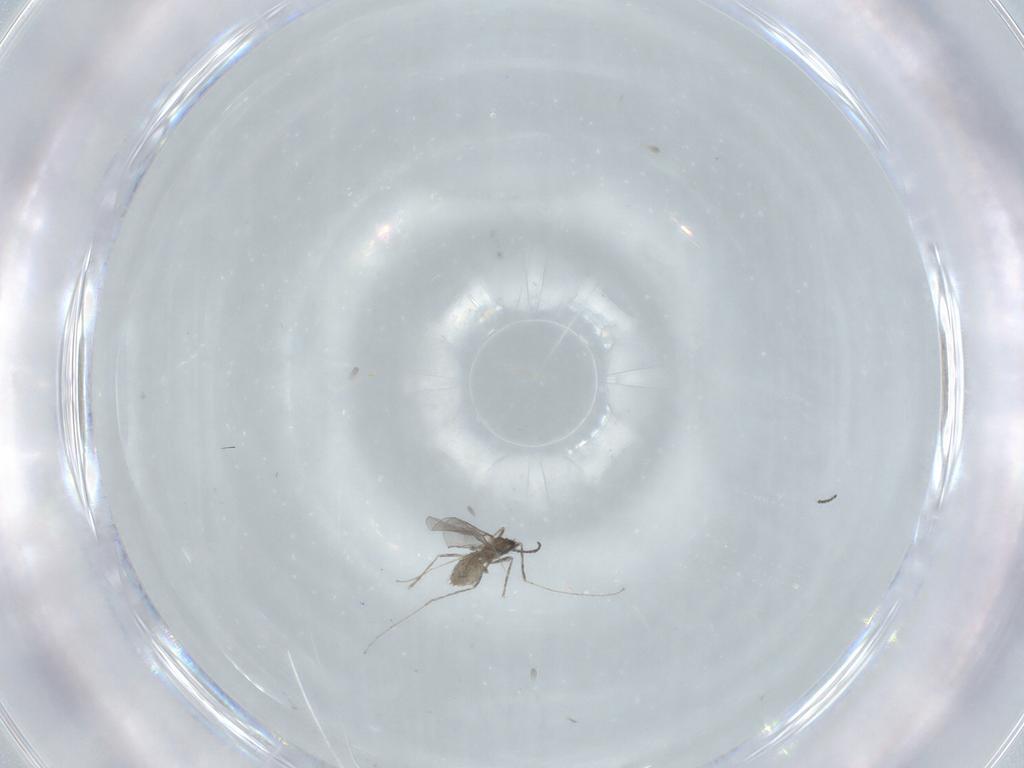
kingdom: Animalia
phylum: Arthropoda
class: Insecta
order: Diptera
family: Cecidomyiidae
